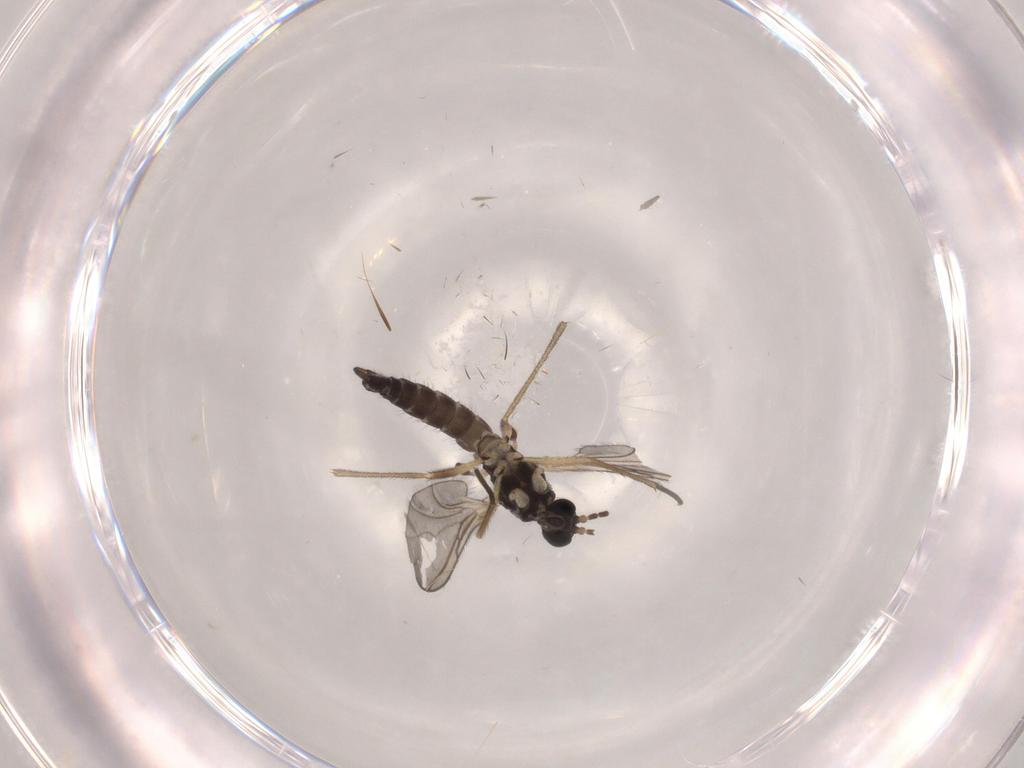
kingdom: Animalia
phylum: Arthropoda
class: Insecta
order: Diptera
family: Sciaridae
